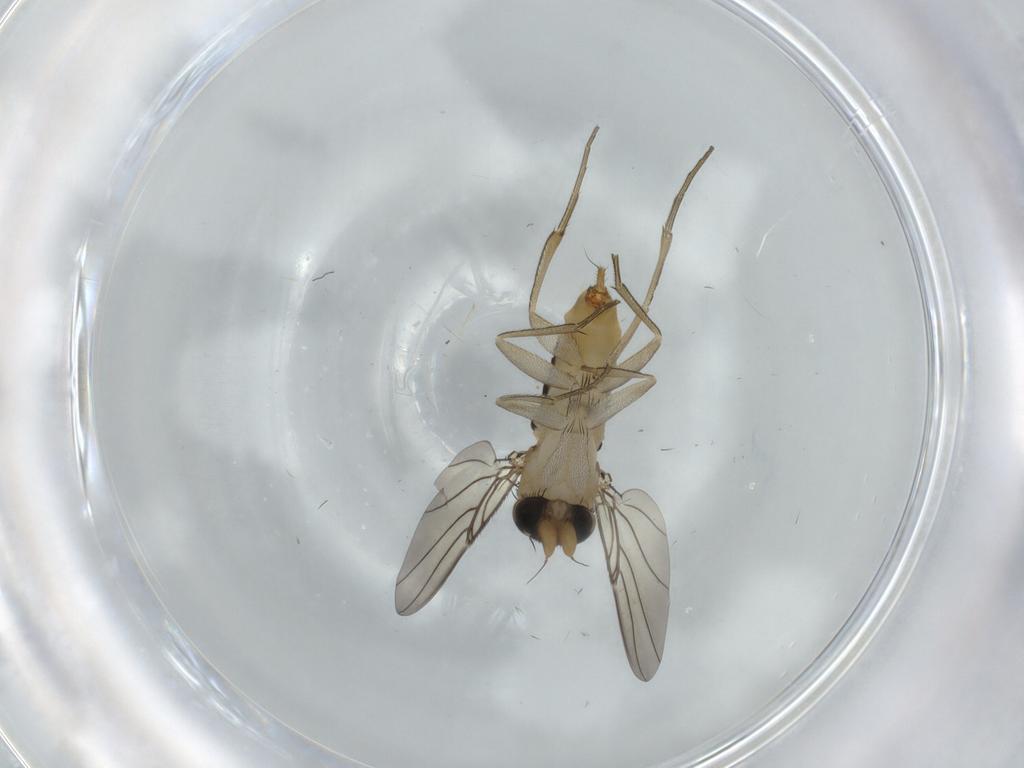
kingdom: Animalia
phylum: Arthropoda
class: Insecta
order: Diptera
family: Phoridae
